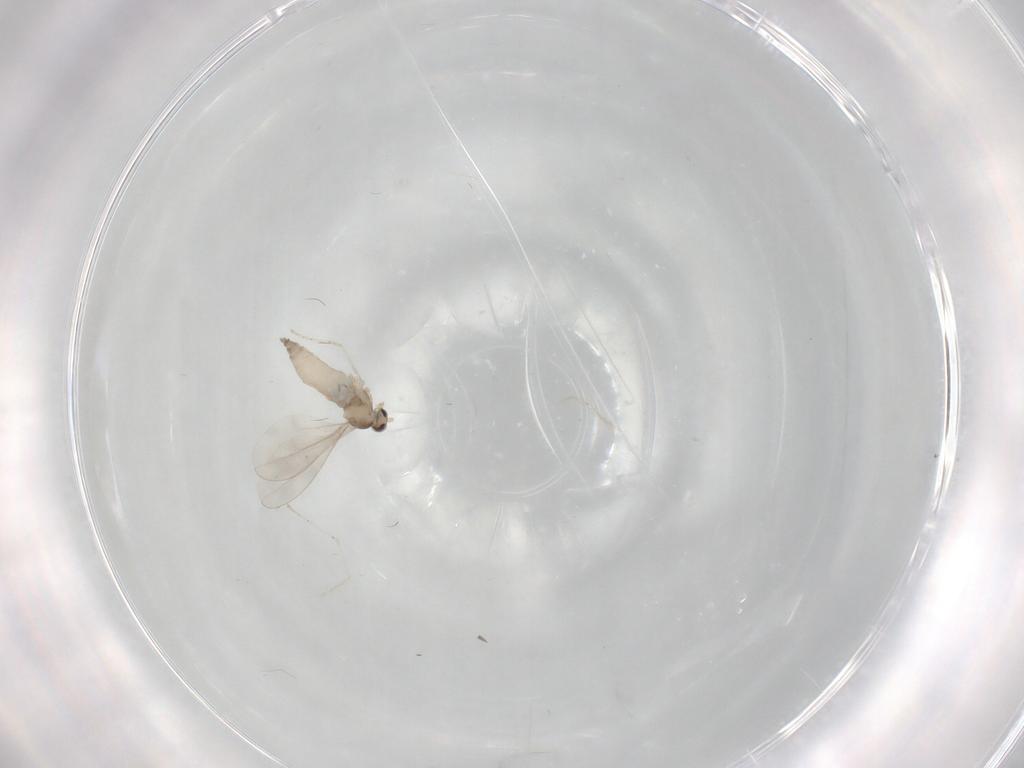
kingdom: Animalia
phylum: Arthropoda
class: Insecta
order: Diptera
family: Cecidomyiidae
